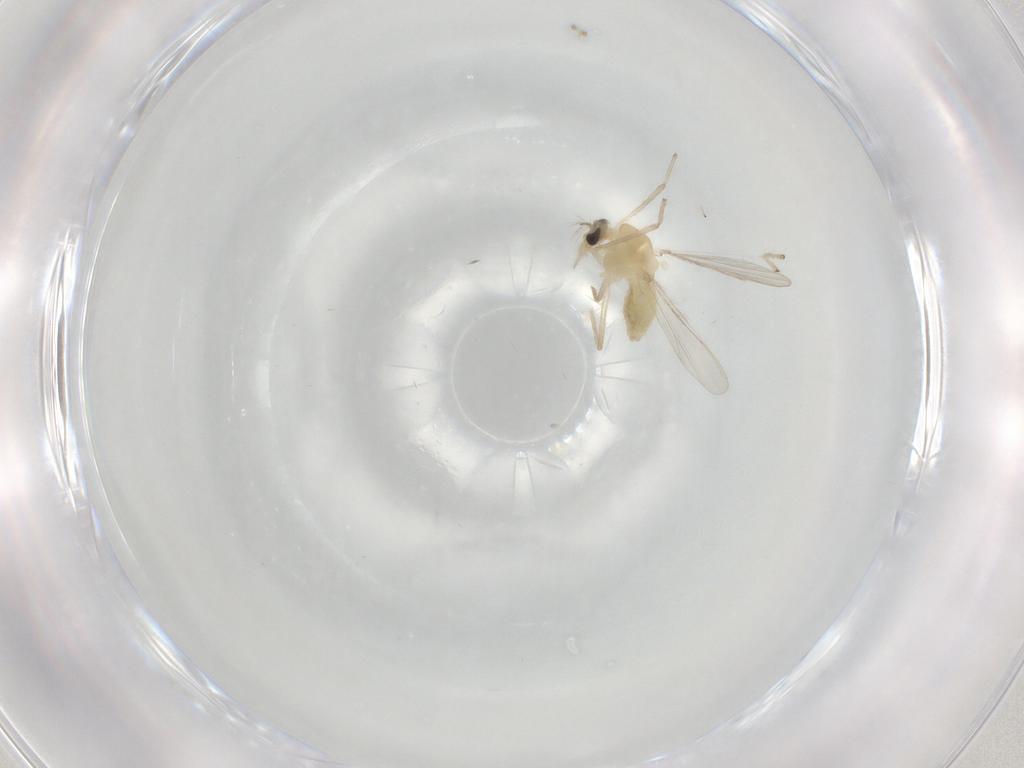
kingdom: Animalia
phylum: Arthropoda
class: Insecta
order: Diptera
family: Chironomidae
